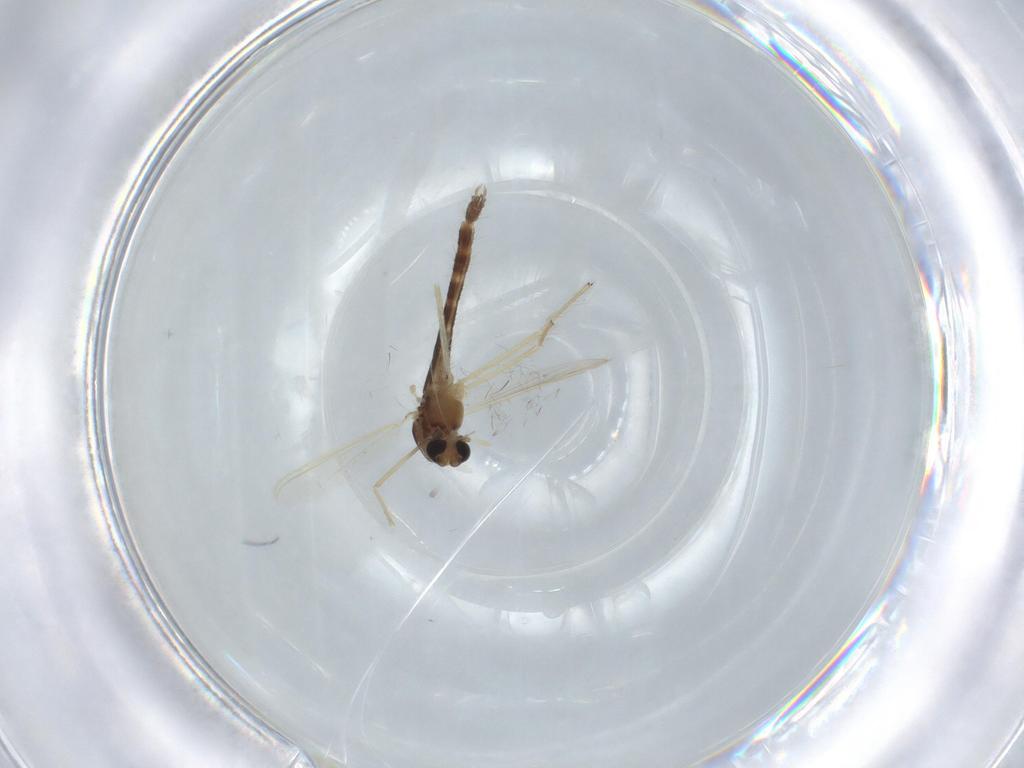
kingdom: Animalia
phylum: Arthropoda
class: Insecta
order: Diptera
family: Chironomidae
